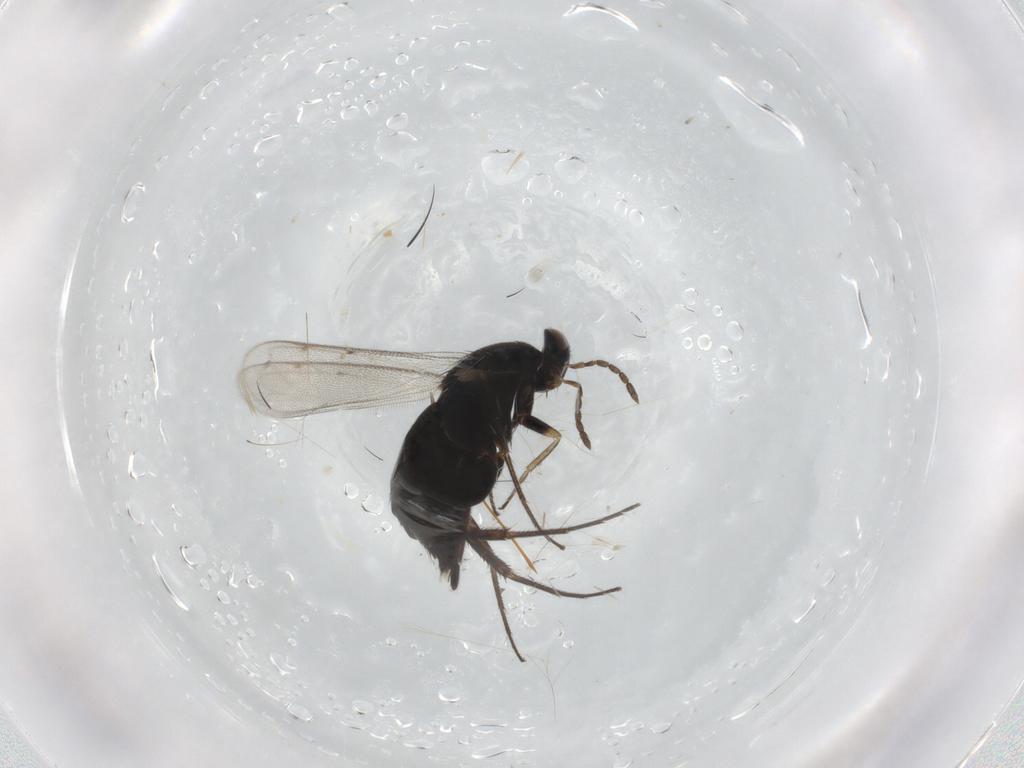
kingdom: Animalia
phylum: Arthropoda
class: Insecta
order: Hymenoptera
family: Eulophidae
